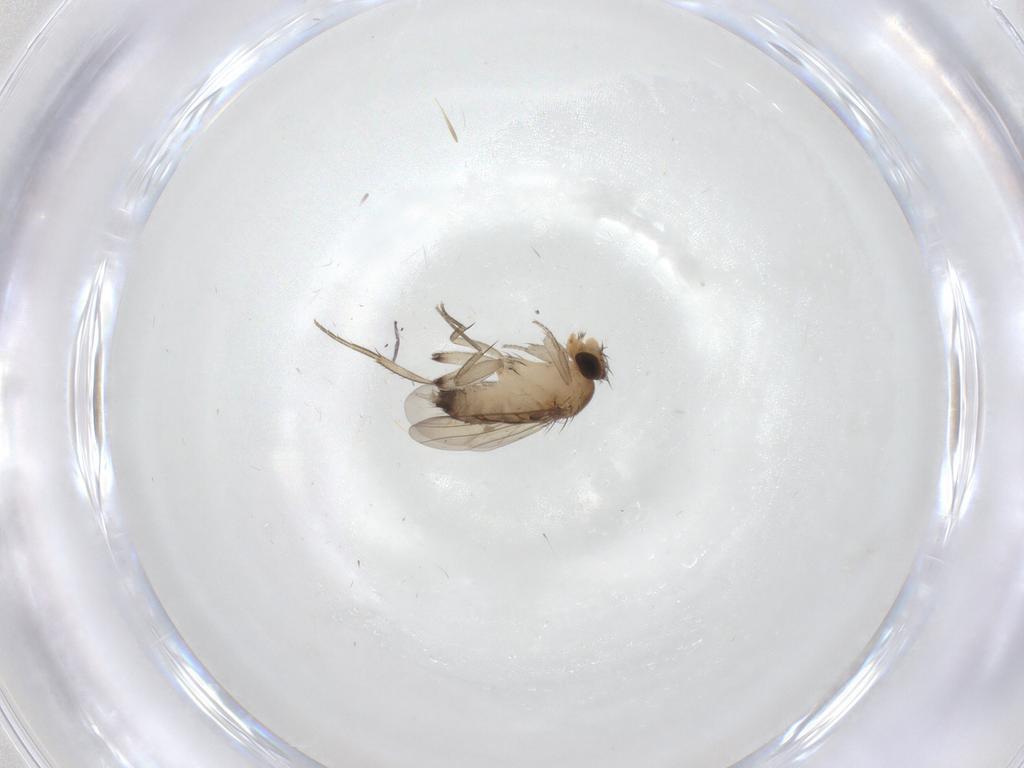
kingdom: Animalia
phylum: Arthropoda
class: Insecta
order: Diptera
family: Phoridae
